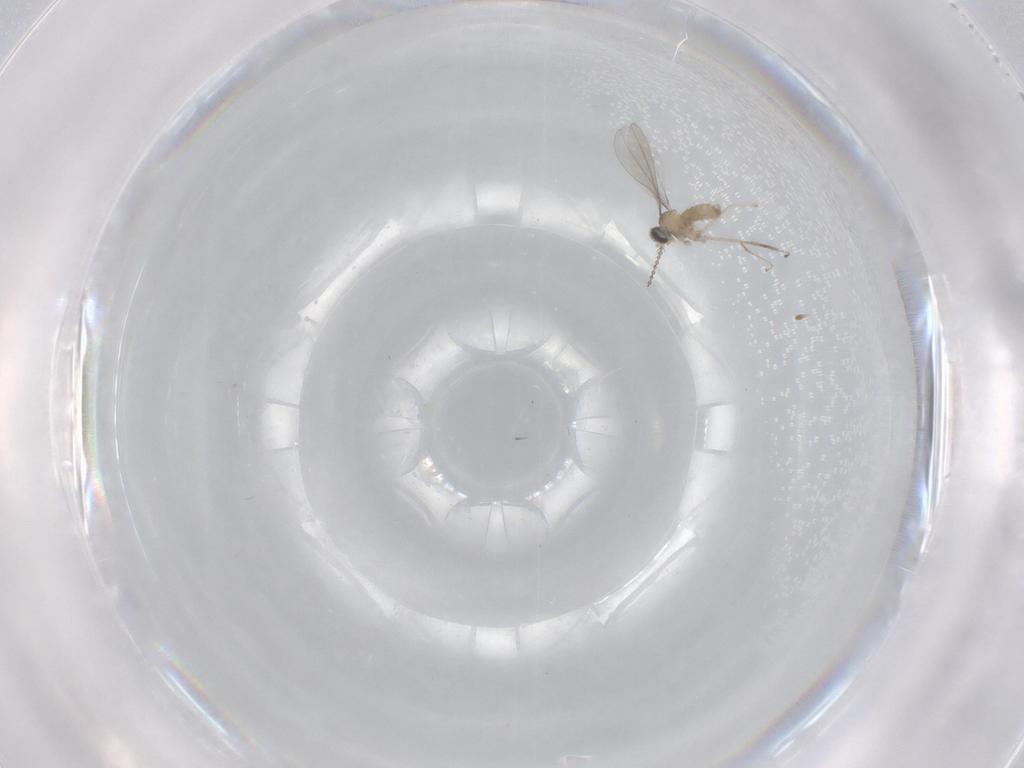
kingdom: Animalia
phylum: Arthropoda
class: Insecta
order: Diptera
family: Cecidomyiidae
